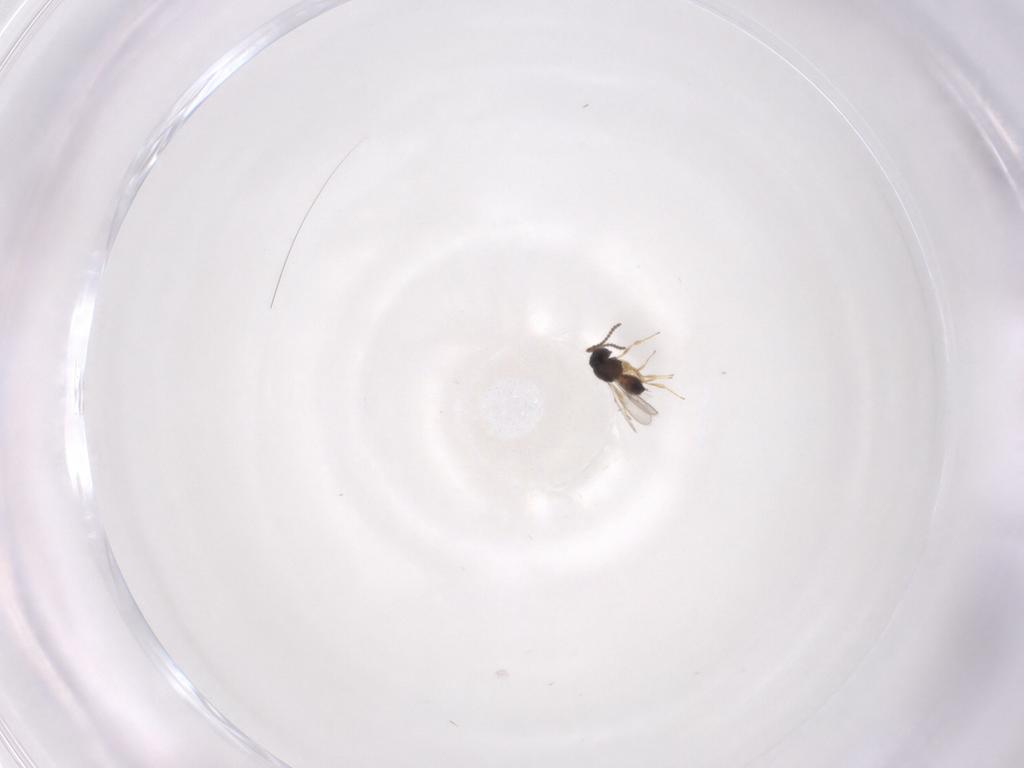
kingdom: Animalia
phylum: Arthropoda
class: Insecta
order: Hymenoptera
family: Scelionidae
